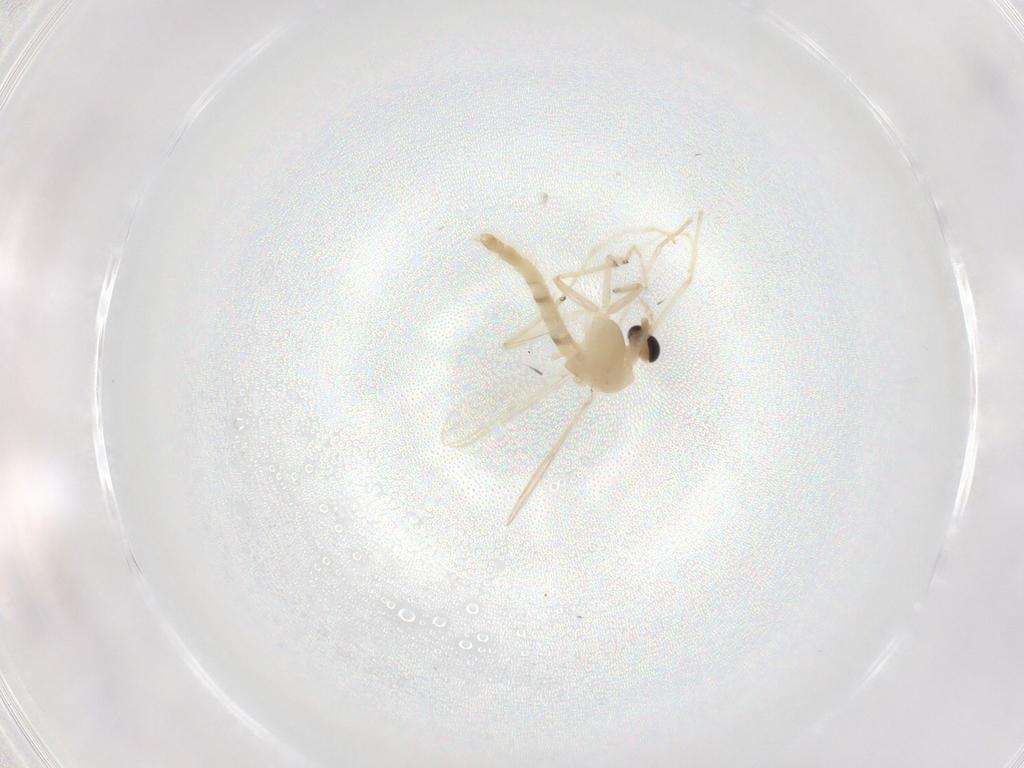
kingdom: Animalia
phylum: Arthropoda
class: Insecta
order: Diptera
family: Chironomidae
